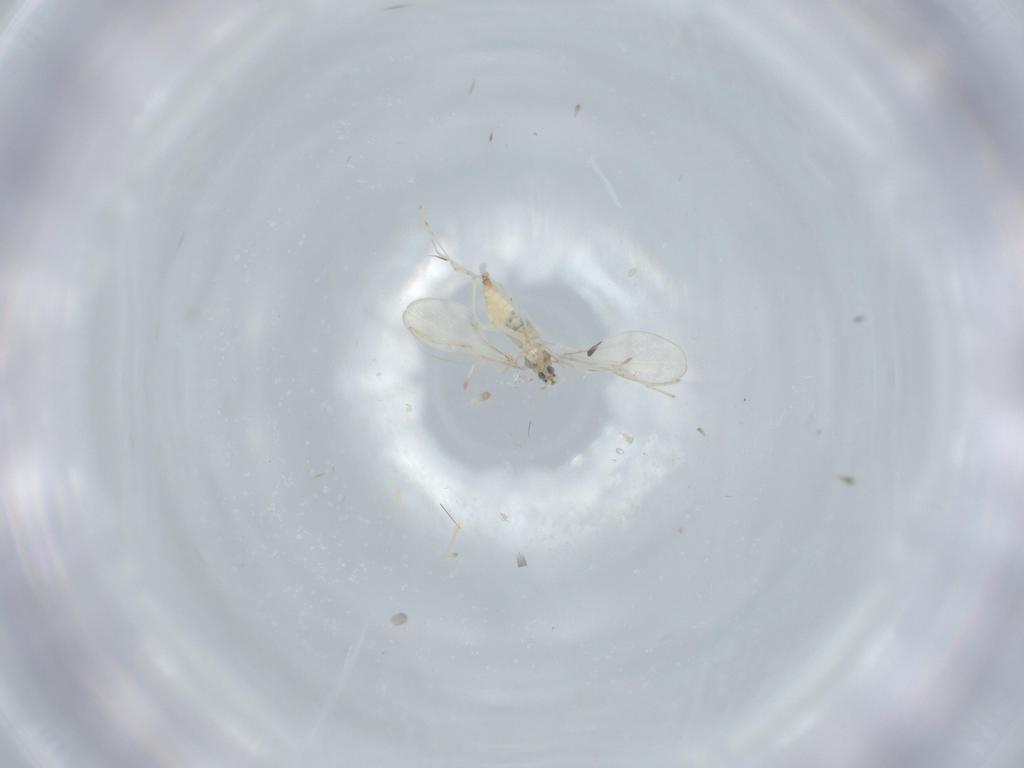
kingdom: Animalia
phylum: Arthropoda
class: Insecta
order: Diptera
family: Cecidomyiidae
